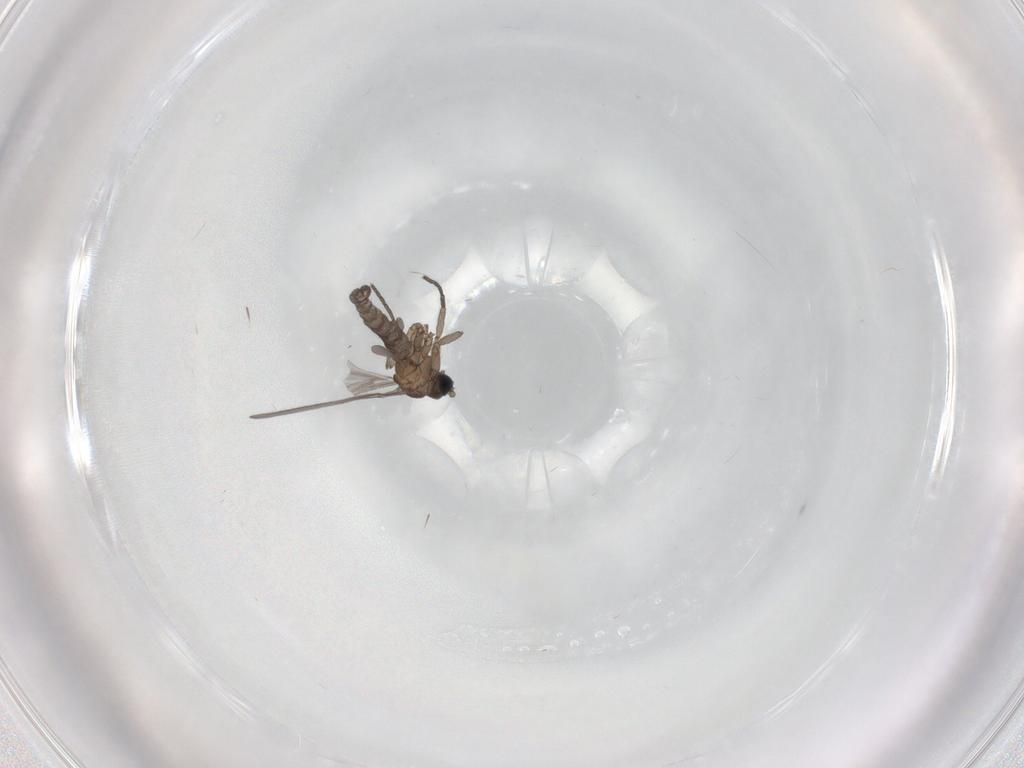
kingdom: Animalia
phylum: Arthropoda
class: Insecta
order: Diptera
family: Sciaridae
